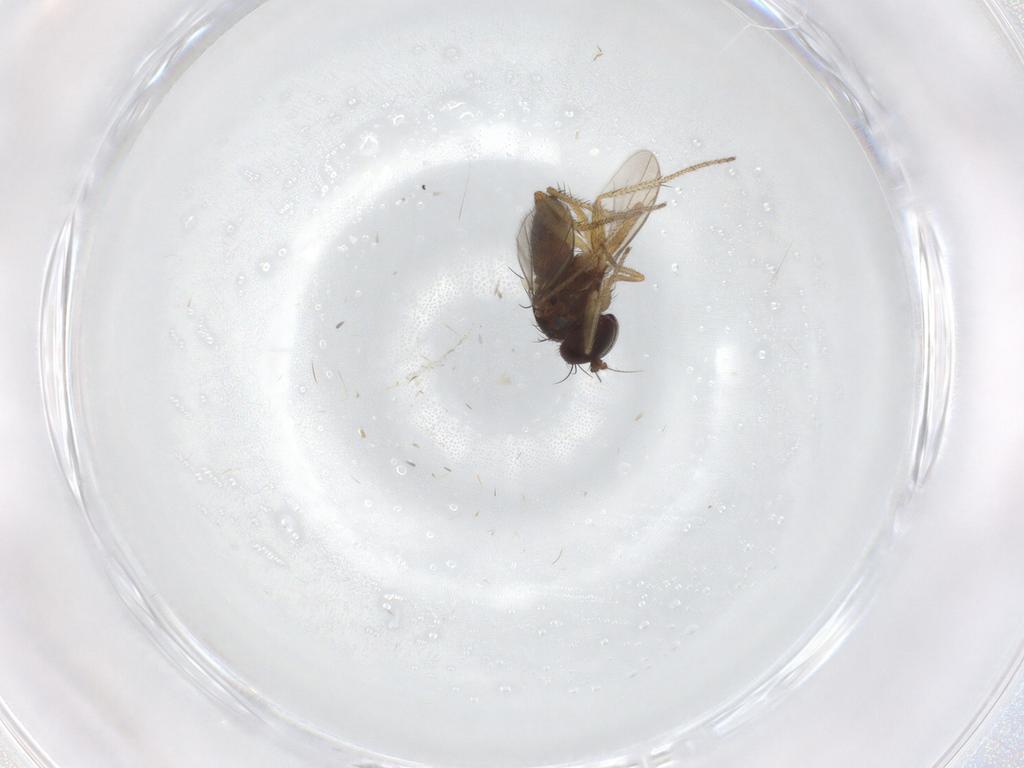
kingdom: Animalia
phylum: Arthropoda
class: Insecta
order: Diptera
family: Dolichopodidae
